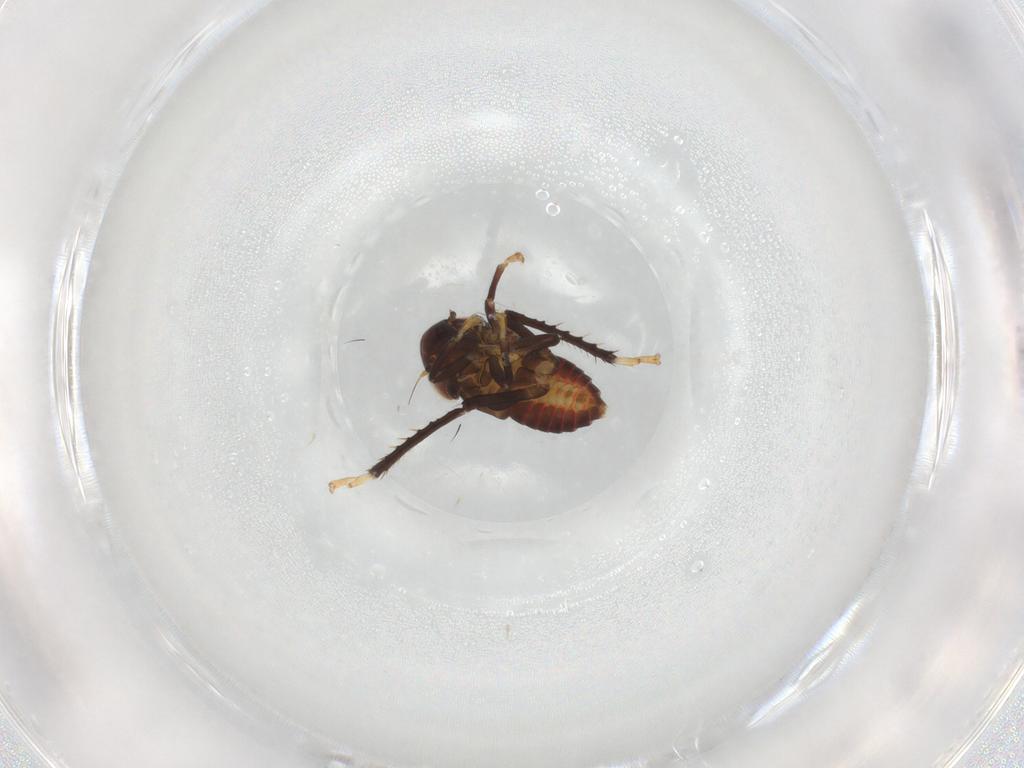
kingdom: Animalia
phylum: Arthropoda
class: Insecta
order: Hemiptera
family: Cicadellidae
